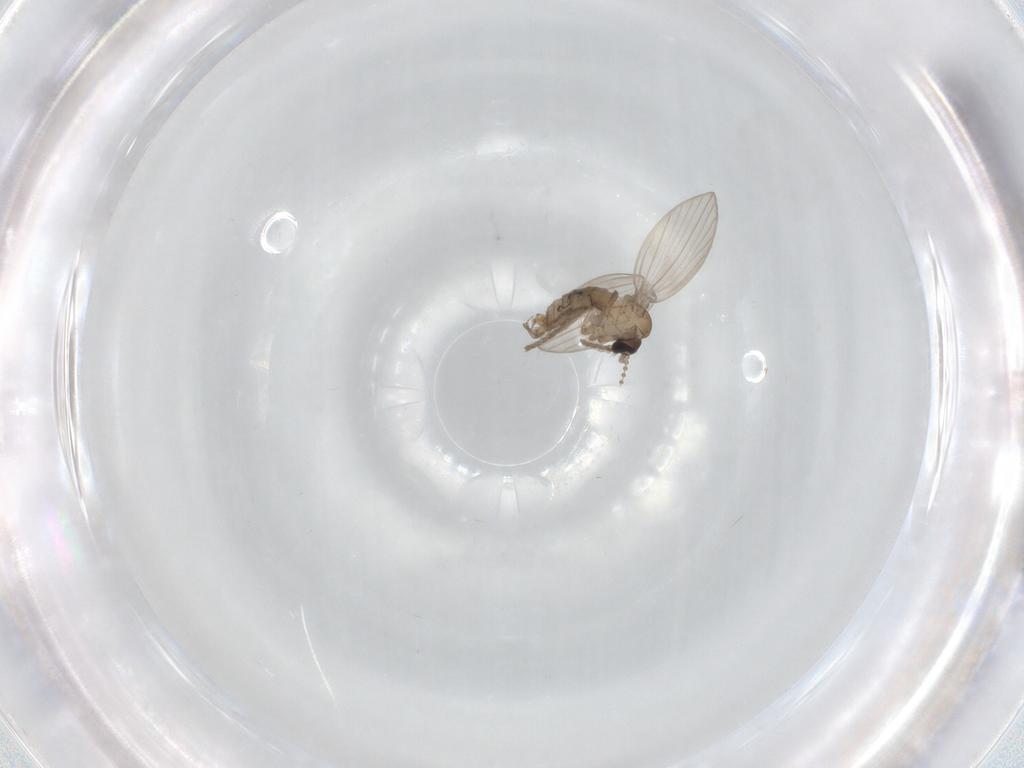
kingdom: Animalia
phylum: Arthropoda
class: Insecta
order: Diptera
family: Psychodidae
